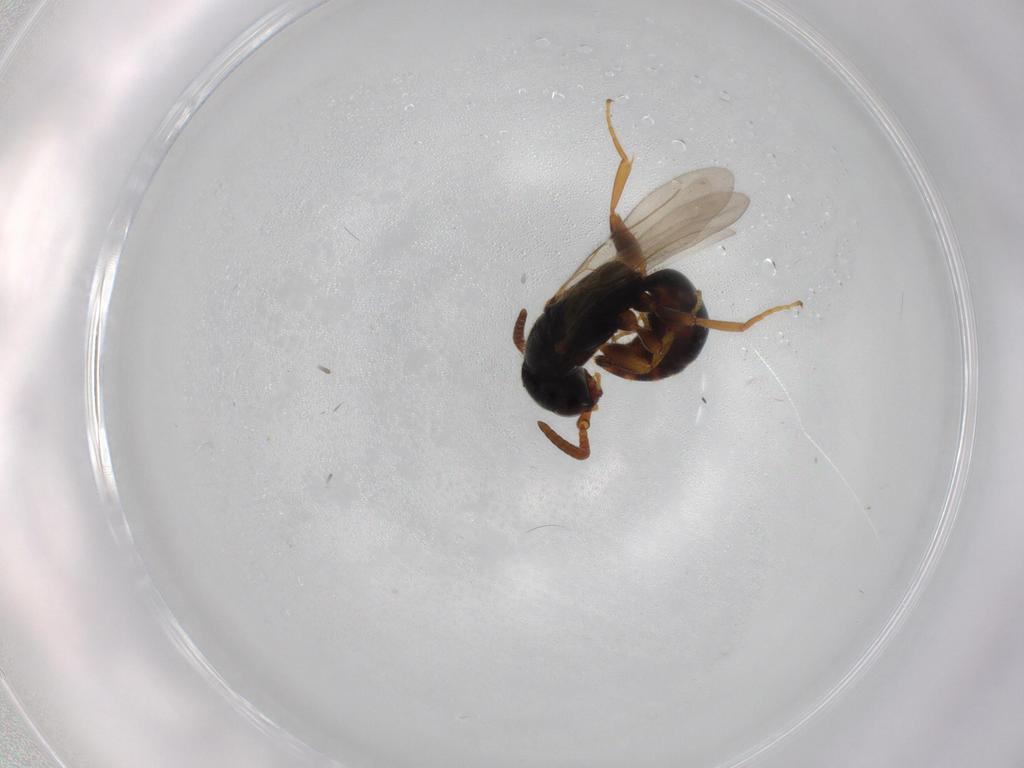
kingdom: Animalia
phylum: Arthropoda
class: Insecta
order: Hymenoptera
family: Bethylidae
